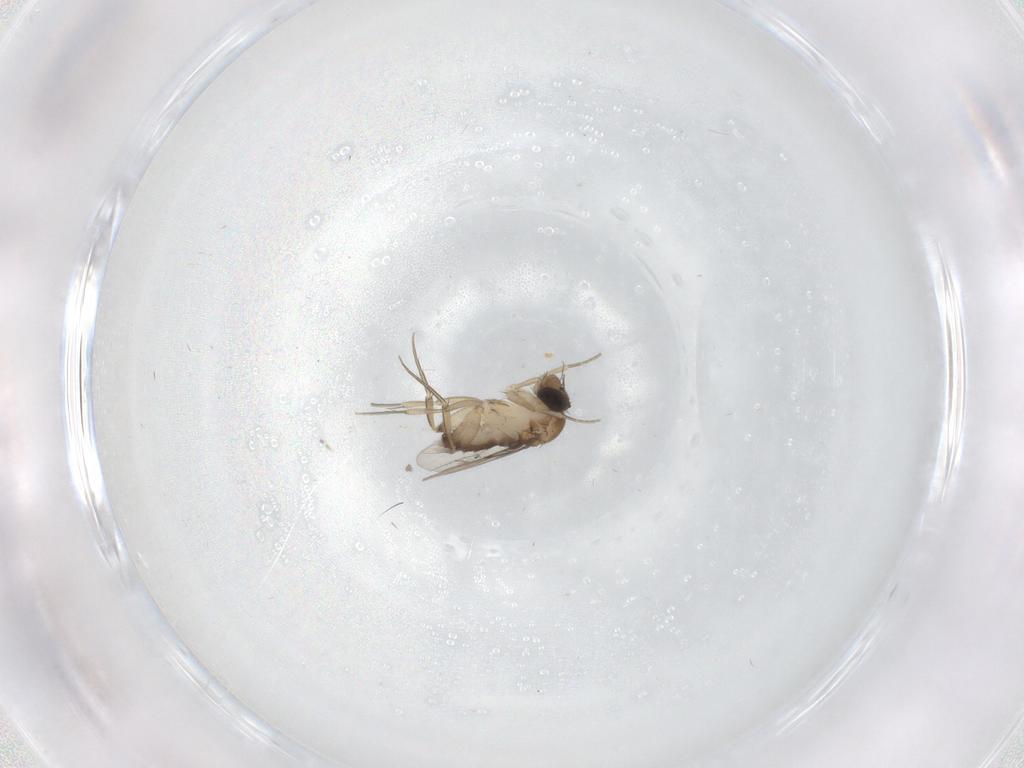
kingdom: Animalia
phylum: Arthropoda
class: Insecta
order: Diptera
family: Phoridae
